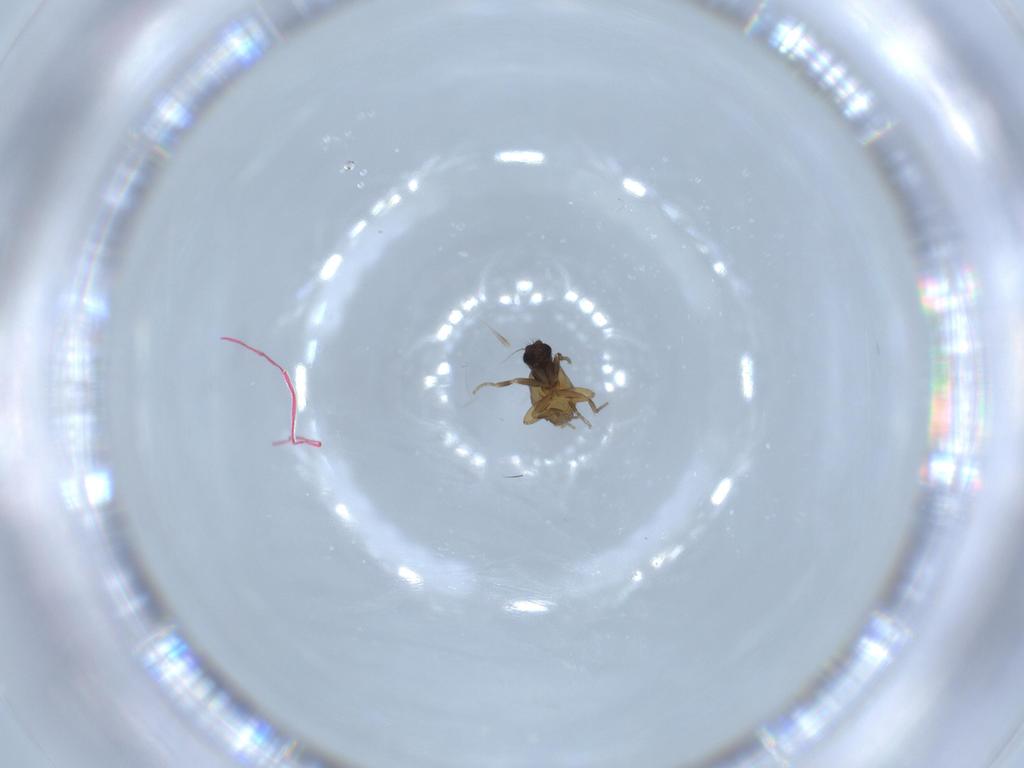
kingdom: Animalia
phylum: Arthropoda
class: Insecta
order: Diptera
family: Phoridae
